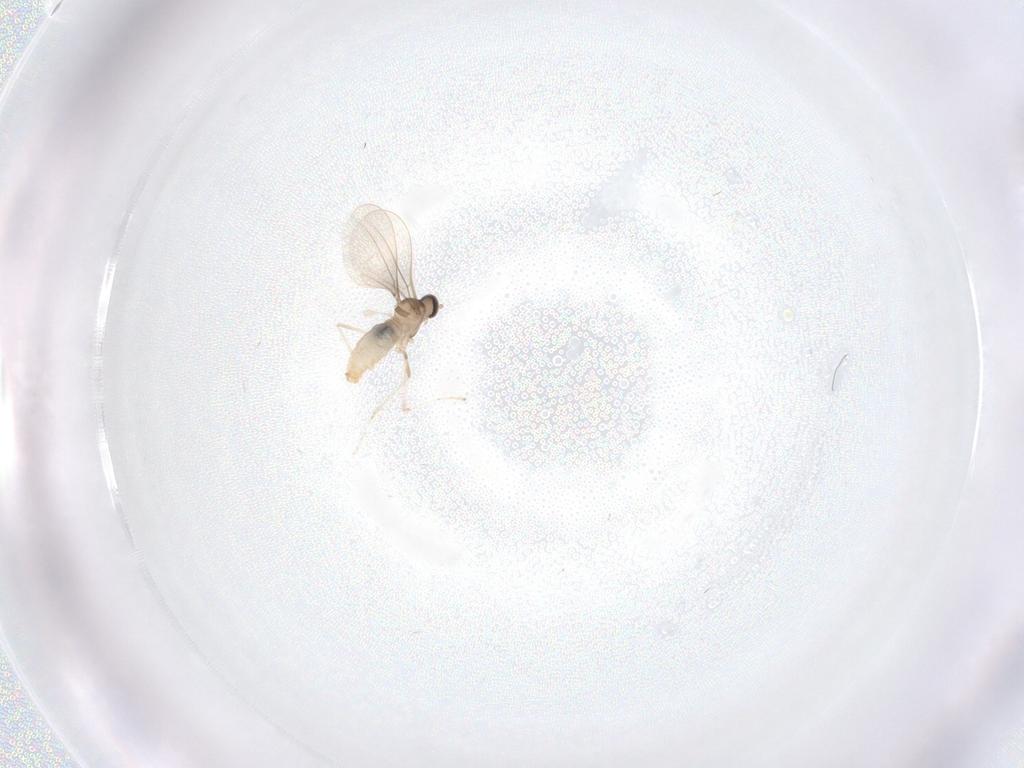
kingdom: Animalia
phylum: Arthropoda
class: Insecta
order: Diptera
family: Cecidomyiidae
